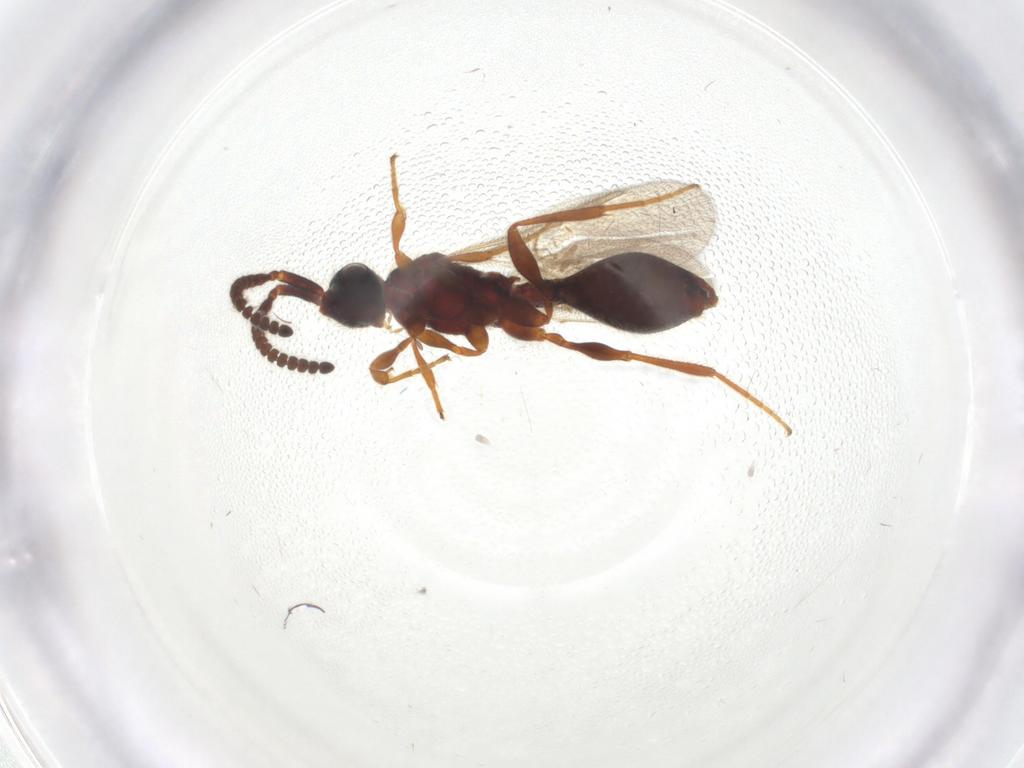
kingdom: Animalia
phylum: Arthropoda
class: Insecta
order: Hymenoptera
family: Diapriidae
